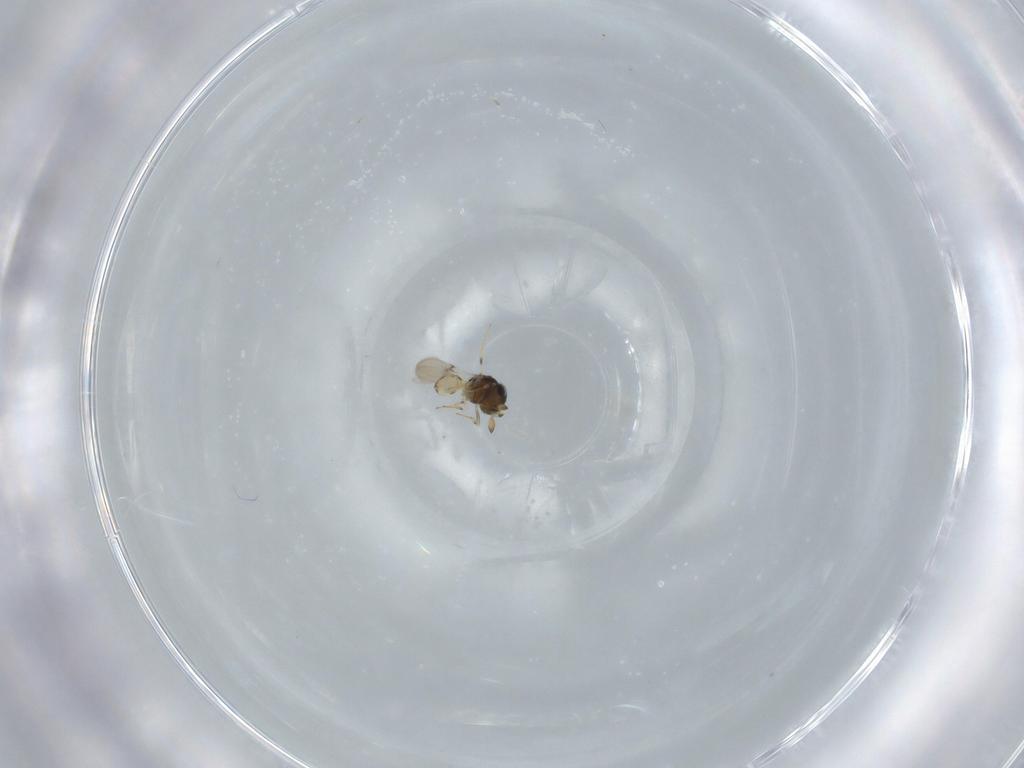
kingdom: Animalia
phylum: Arthropoda
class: Insecta
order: Hymenoptera
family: Scelionidae
